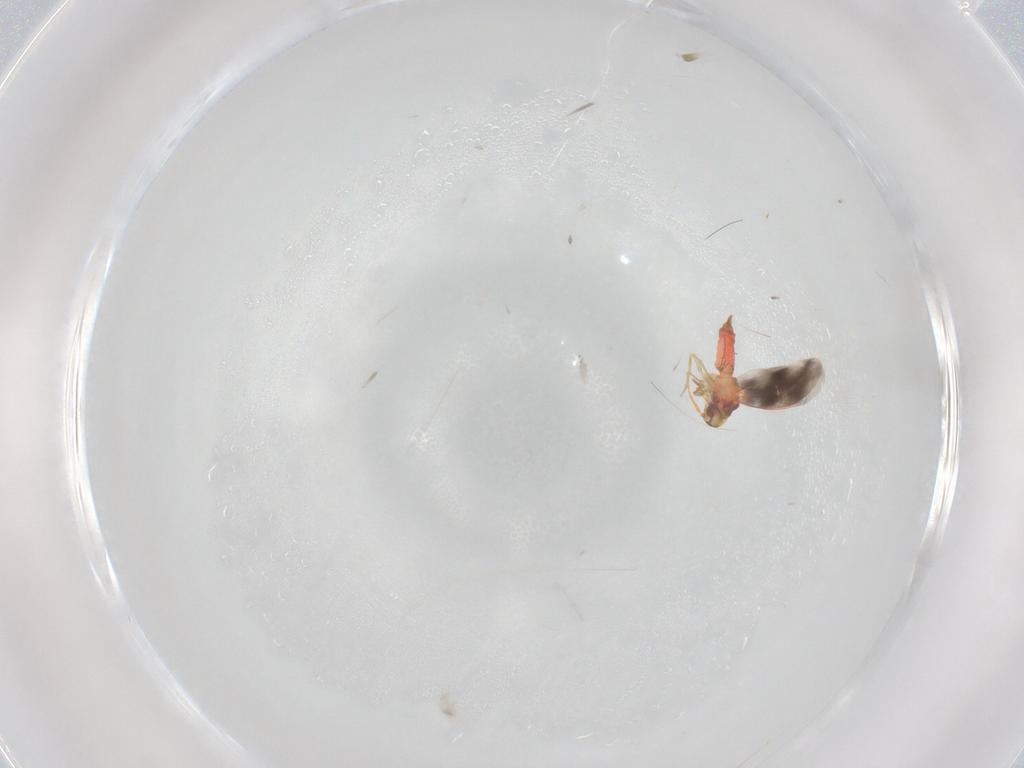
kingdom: Animalia
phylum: Arthropoda
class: Insecta
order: Hemiptera
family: Aleyrodidae
